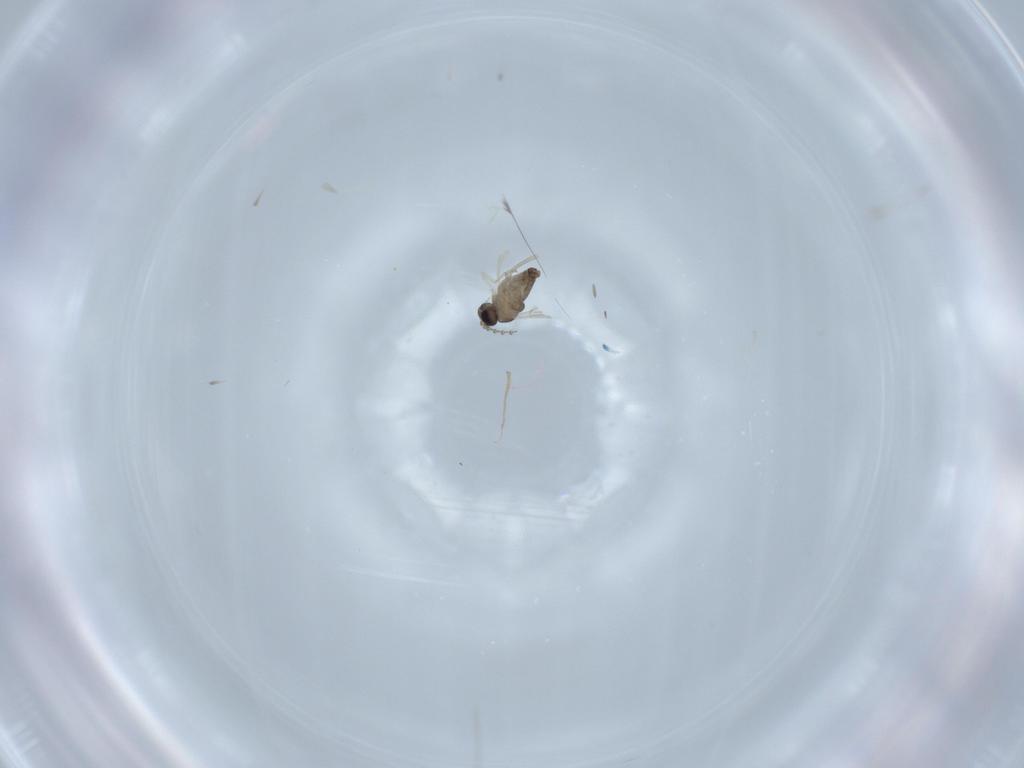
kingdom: Animalia
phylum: Arthropoda
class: Insecta
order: Diptera
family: Cecidomyiidae
